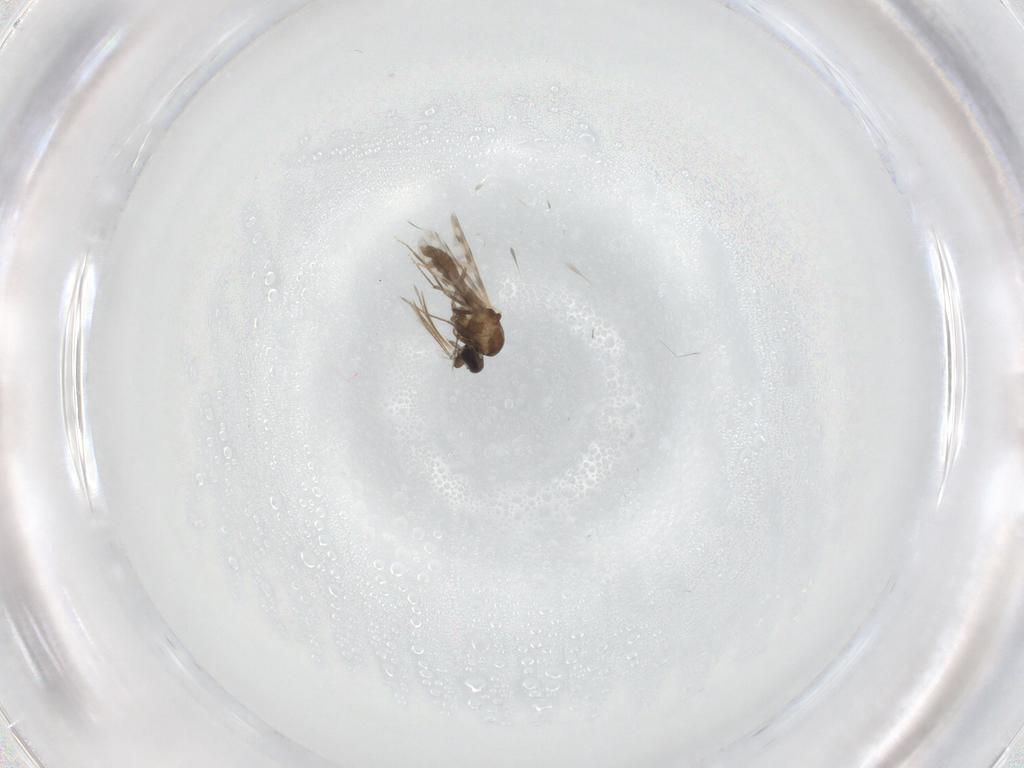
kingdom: Animalia
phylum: Arthropoda
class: Insecta
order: Diptera
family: Ceratopogonidae
